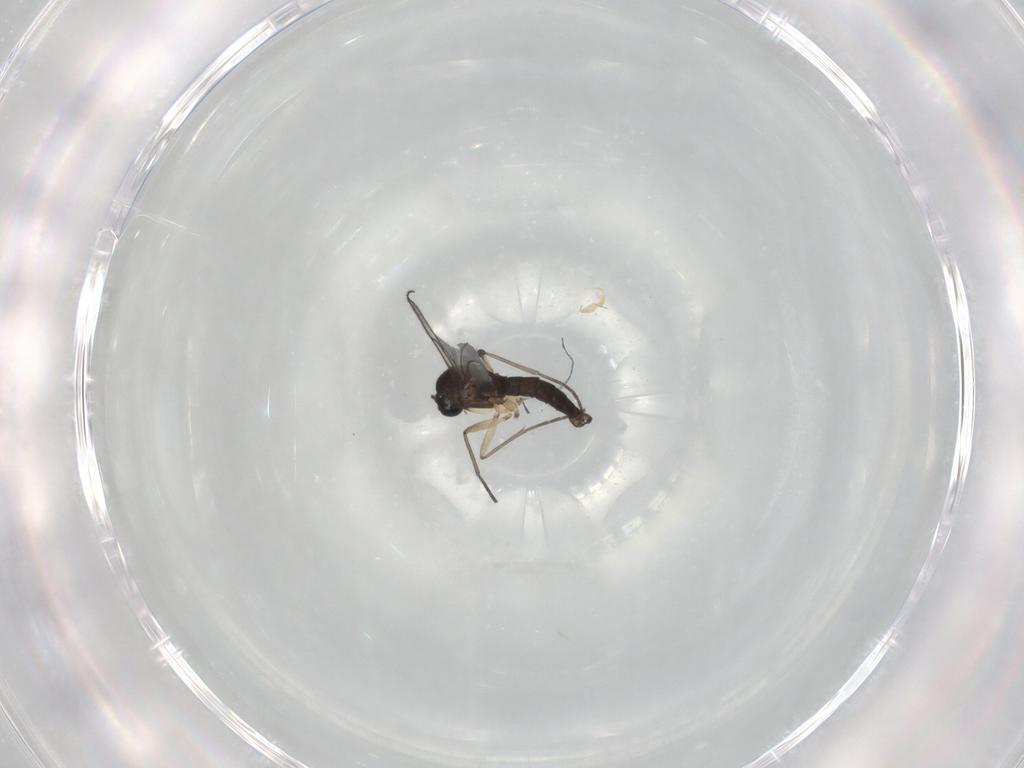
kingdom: Animalia
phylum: Arthropoda
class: Insecta
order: Diptera
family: Sciaridae
